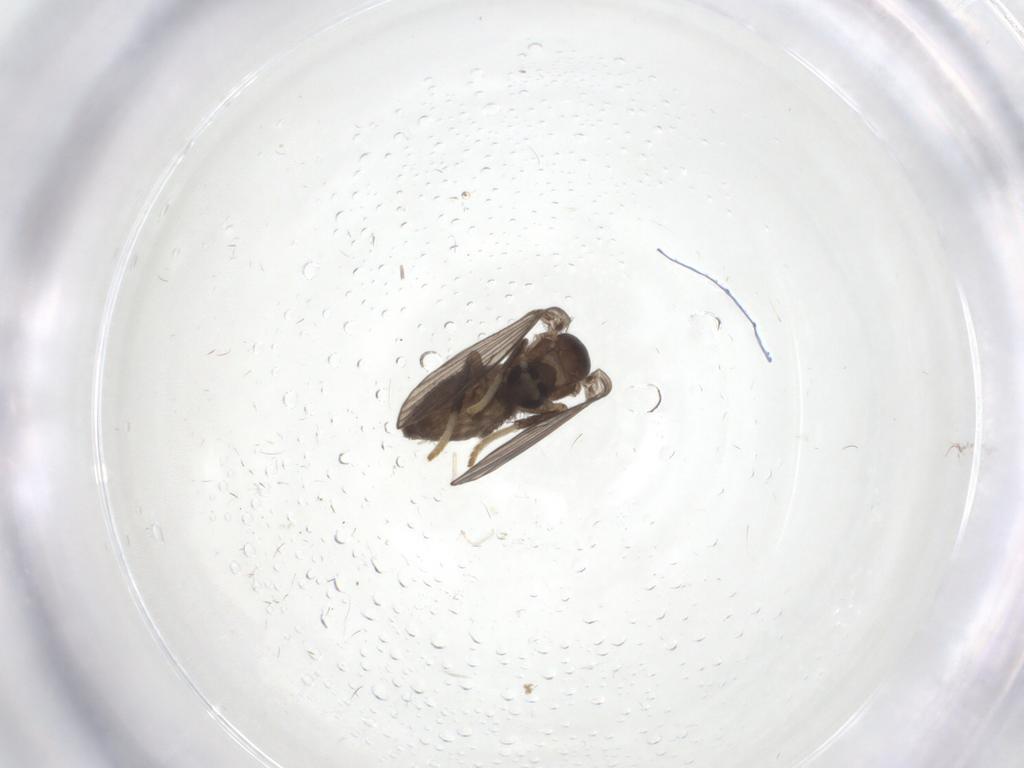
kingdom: Animalia
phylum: Arthropoda
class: Insecta
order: Diptera
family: Psychodidae
